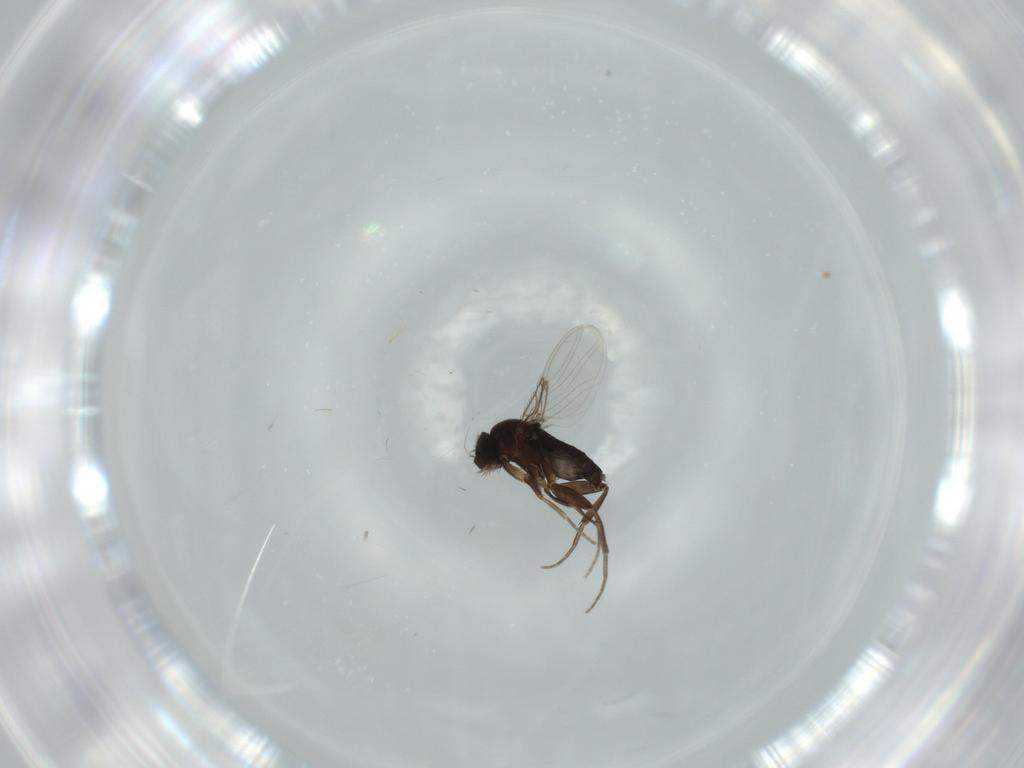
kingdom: Animalia
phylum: Arthropoda
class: Insecta
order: Diptera
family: Phoridae
